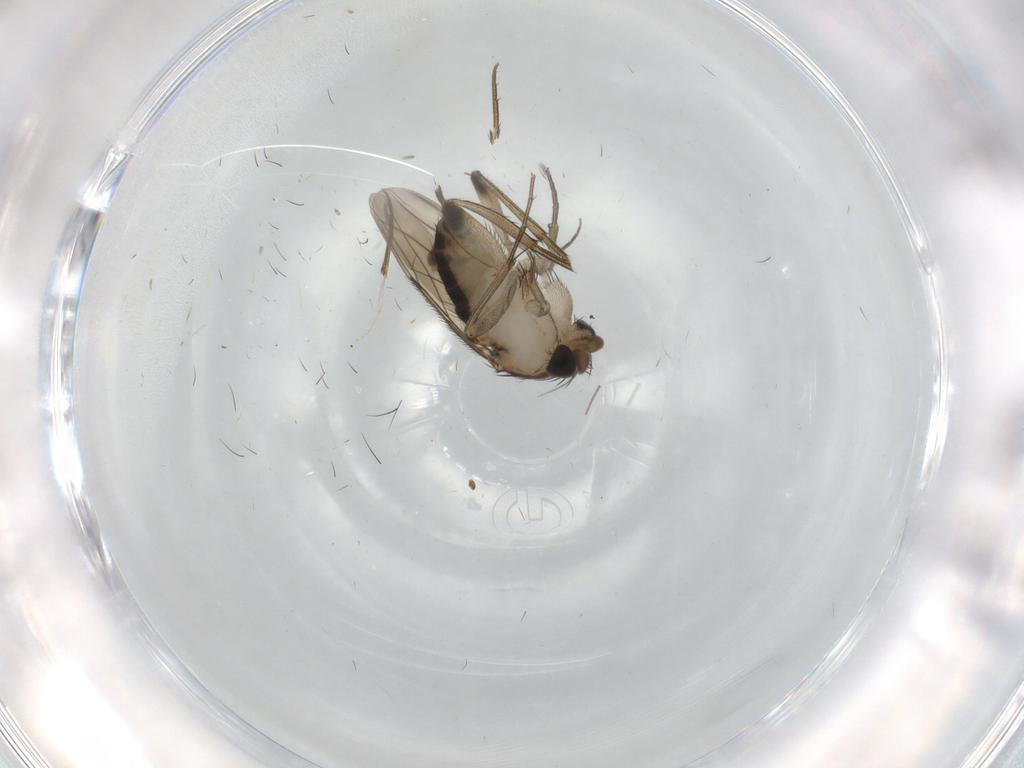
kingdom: Animalia
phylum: Arthropoda
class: Insecta
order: Diptera
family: Phoridae
